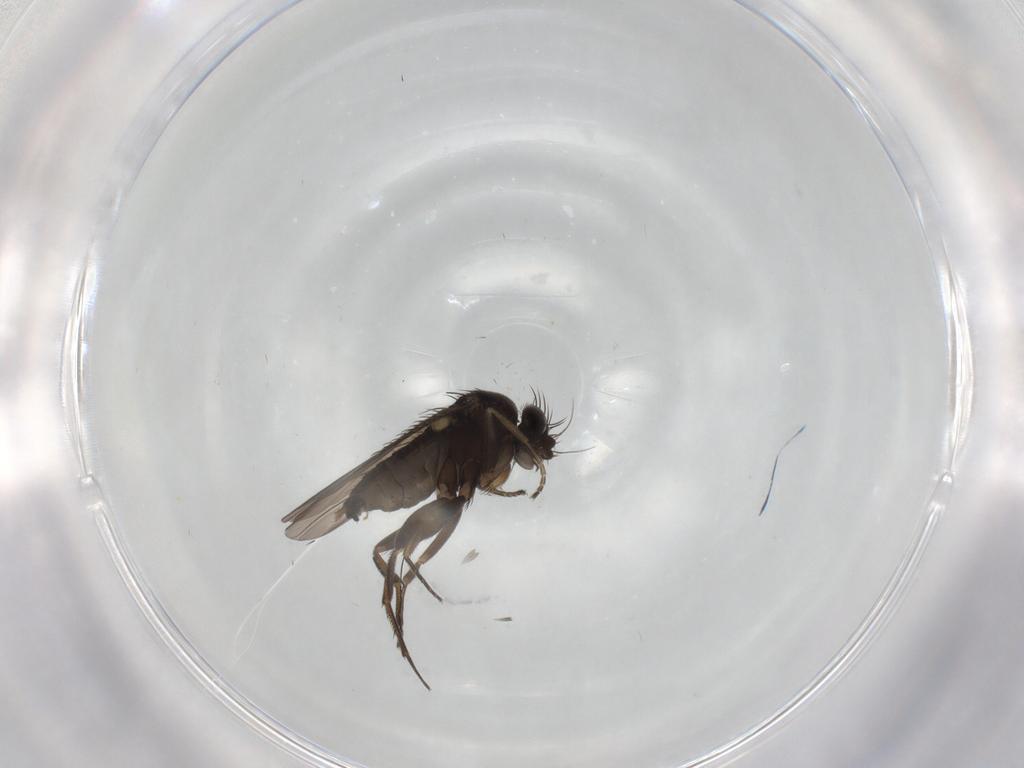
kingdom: Animalia
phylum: Arthropoda
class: Insecta
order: Diptera
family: Phoridae
